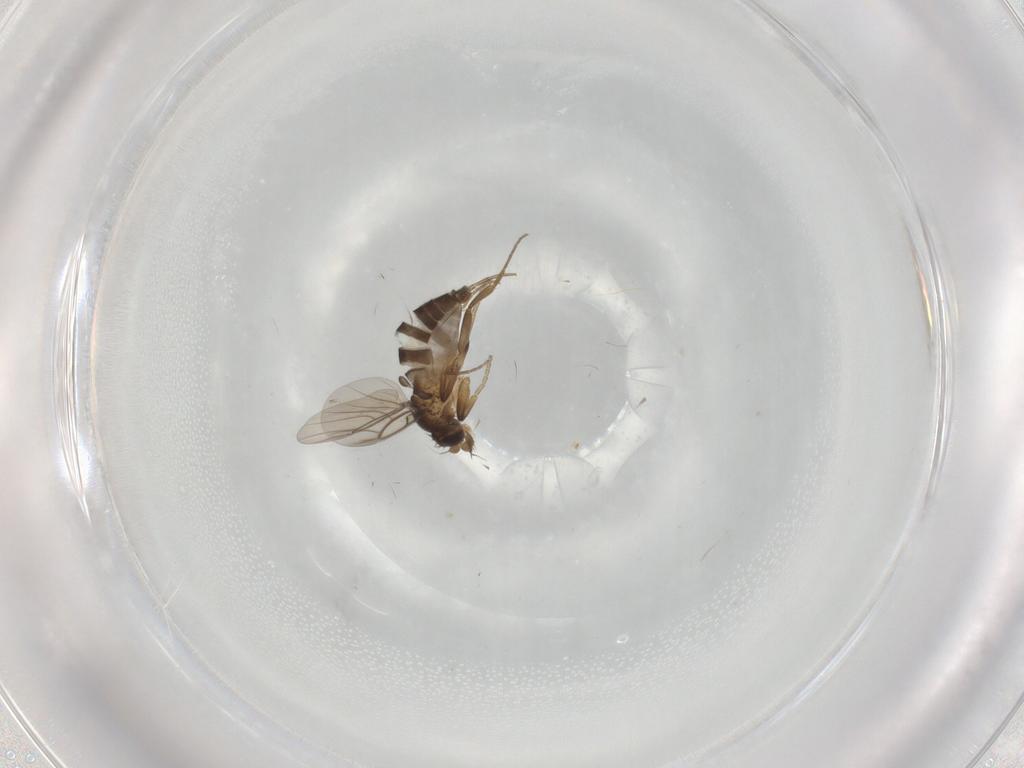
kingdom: Animalia
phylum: Arthropoda
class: Insecta
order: Diptera
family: Phoridae
